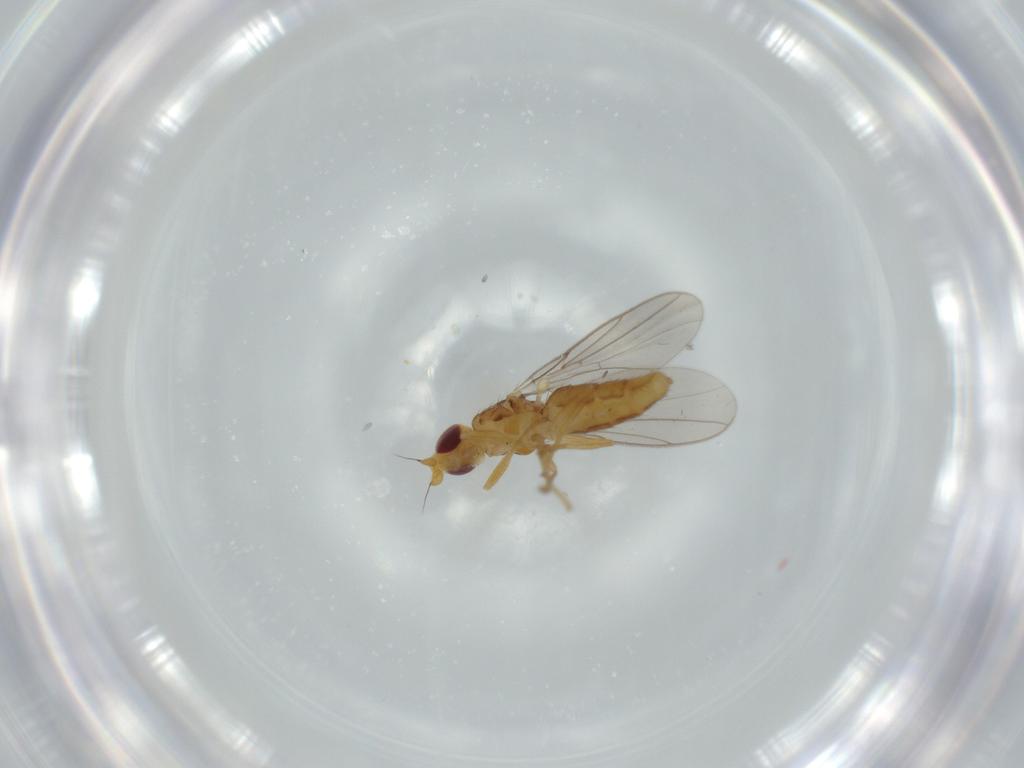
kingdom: Animalia
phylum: Arthropoda
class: Insecta
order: Diptera
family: Chloropidae
